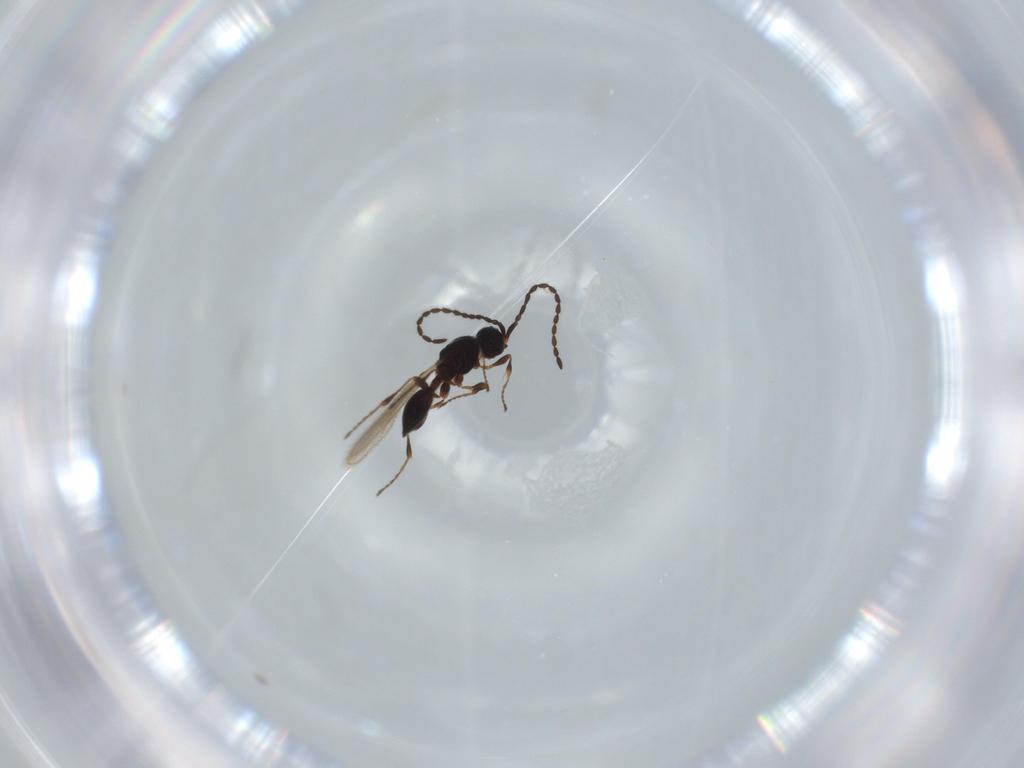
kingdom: Animalia
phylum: Arthropoda
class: Insecta
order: Hymenoptera
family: Diapriidae
